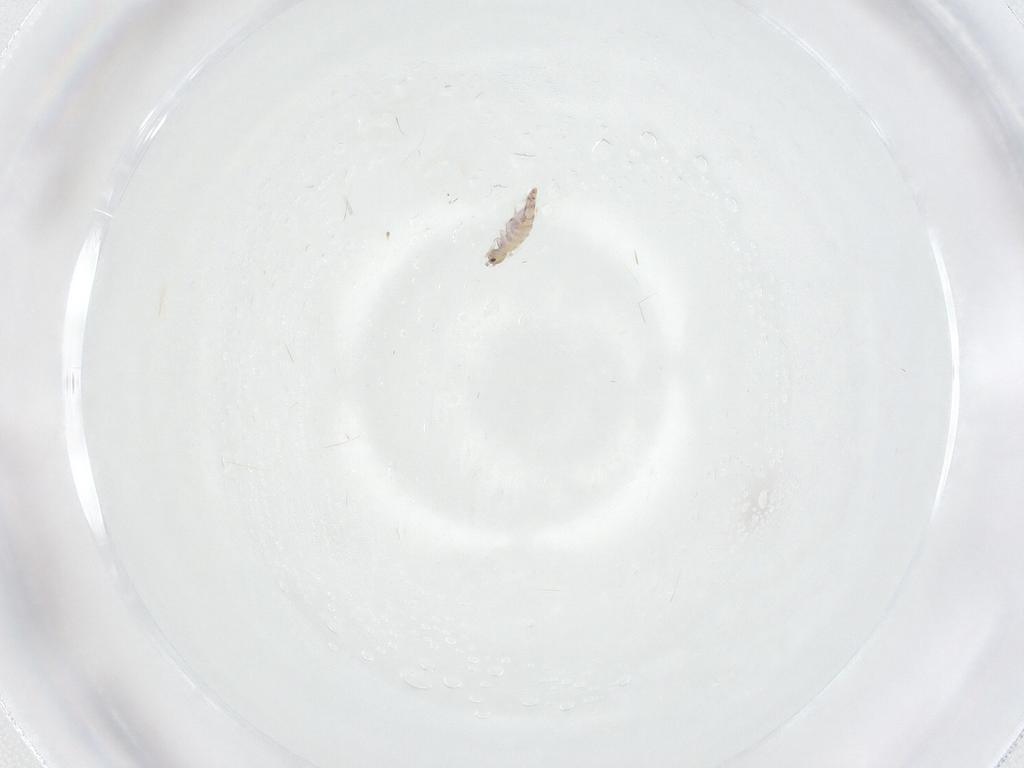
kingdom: Animalia
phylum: Arthropoda
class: Collembola
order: Entomobryomorpha
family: Entomobryidae
